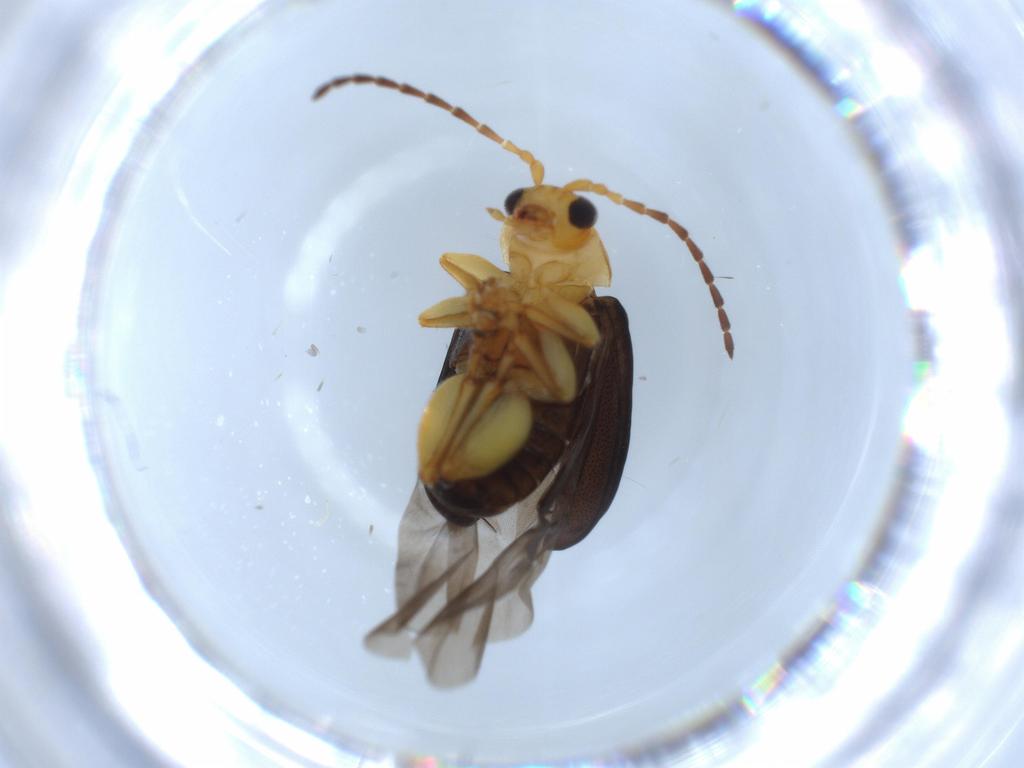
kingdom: Animalia
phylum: Arthropoda
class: Insecta
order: Coleoptera
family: Chrysomelidae
